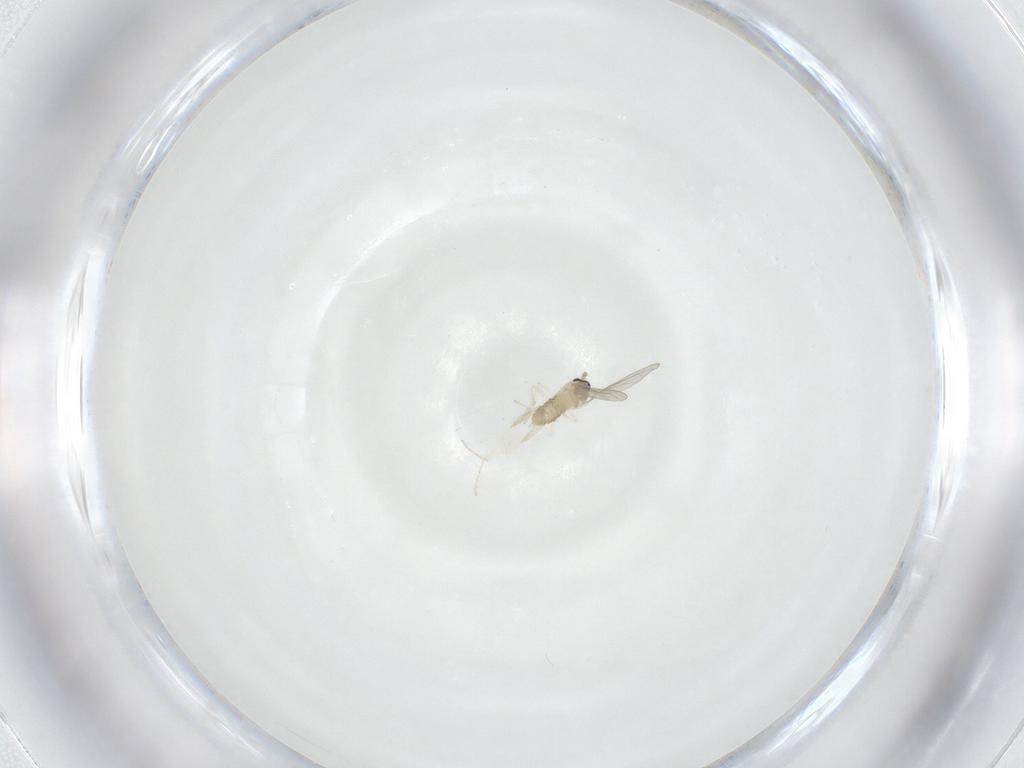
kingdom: Animalia
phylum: Arthropoda
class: Insecta
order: Diptera
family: Cecidomyiidae
